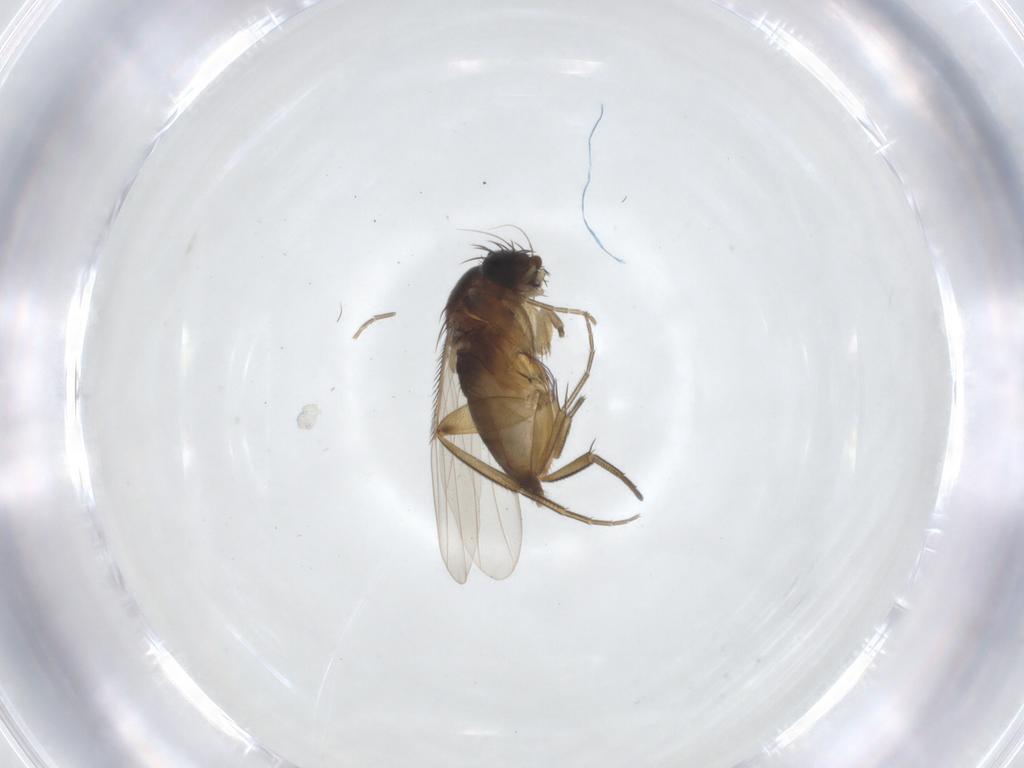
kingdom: Animalia
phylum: Arthropoda
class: Insecta
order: Diptera
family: Phoridae
